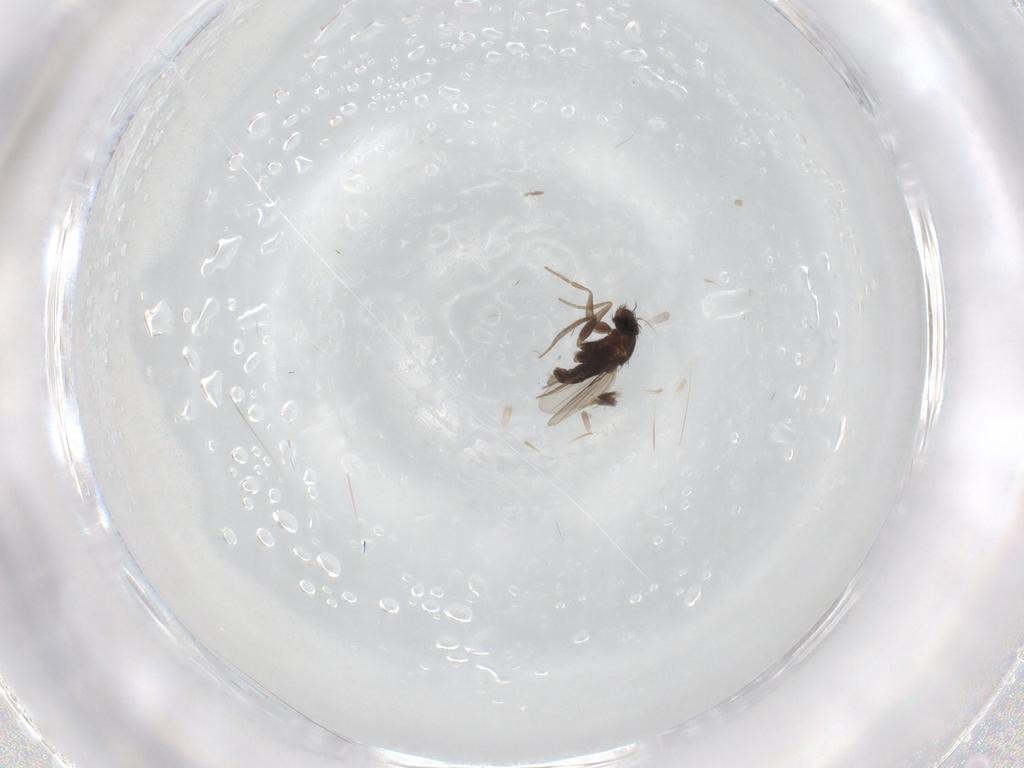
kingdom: Animalia
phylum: Arthropoda
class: Insecta
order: Diptera
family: Phoridae
